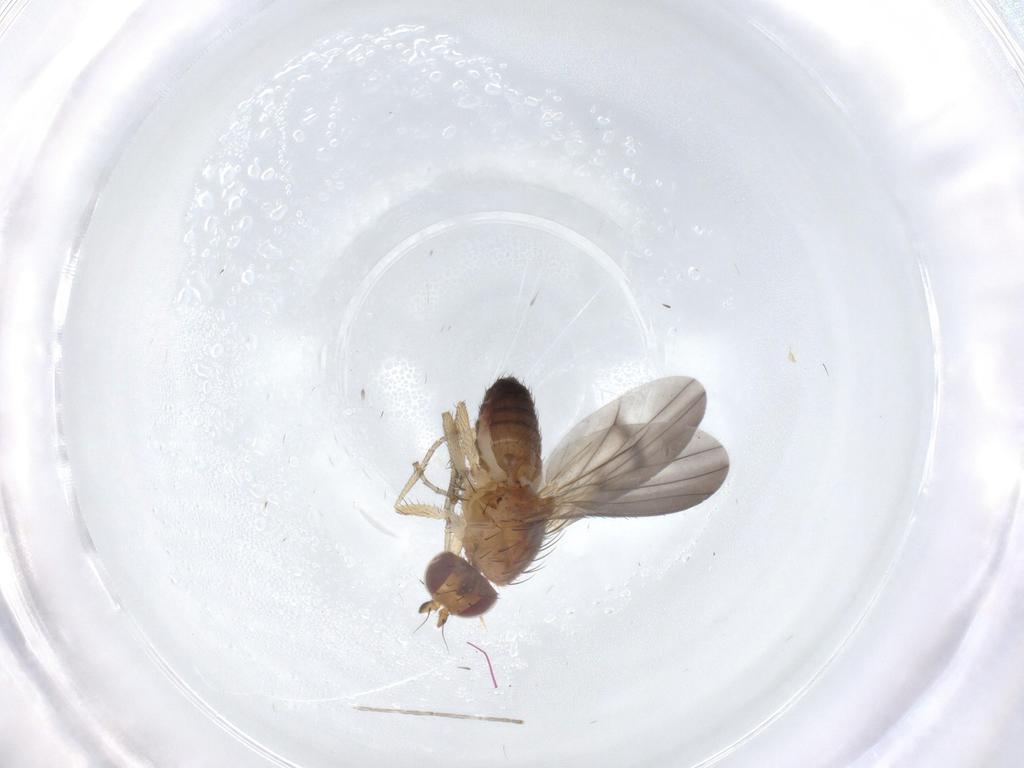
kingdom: Animalia
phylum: Arthropoda
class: Insecta
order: Diptera
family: Heleomyzidae
